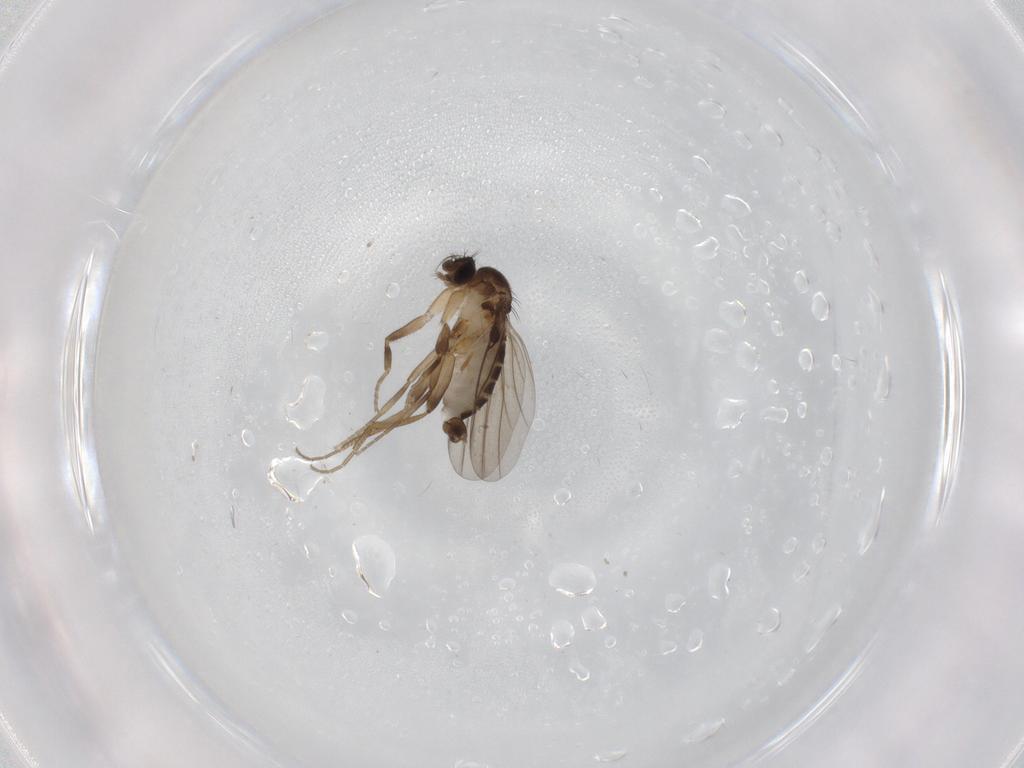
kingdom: Animalia
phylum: Arthropoda
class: Insecta
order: Diptera
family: Phoridae
